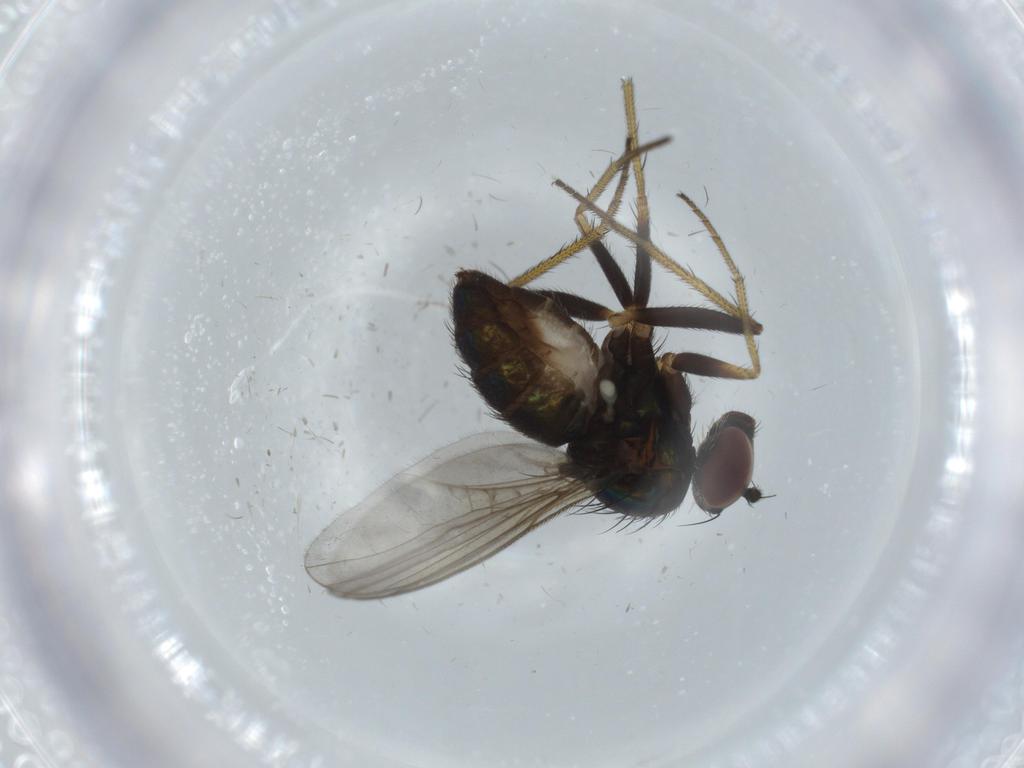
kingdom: Animalia
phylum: Arthropoda
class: Insecta
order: Diptera
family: Cecidomyiidae
